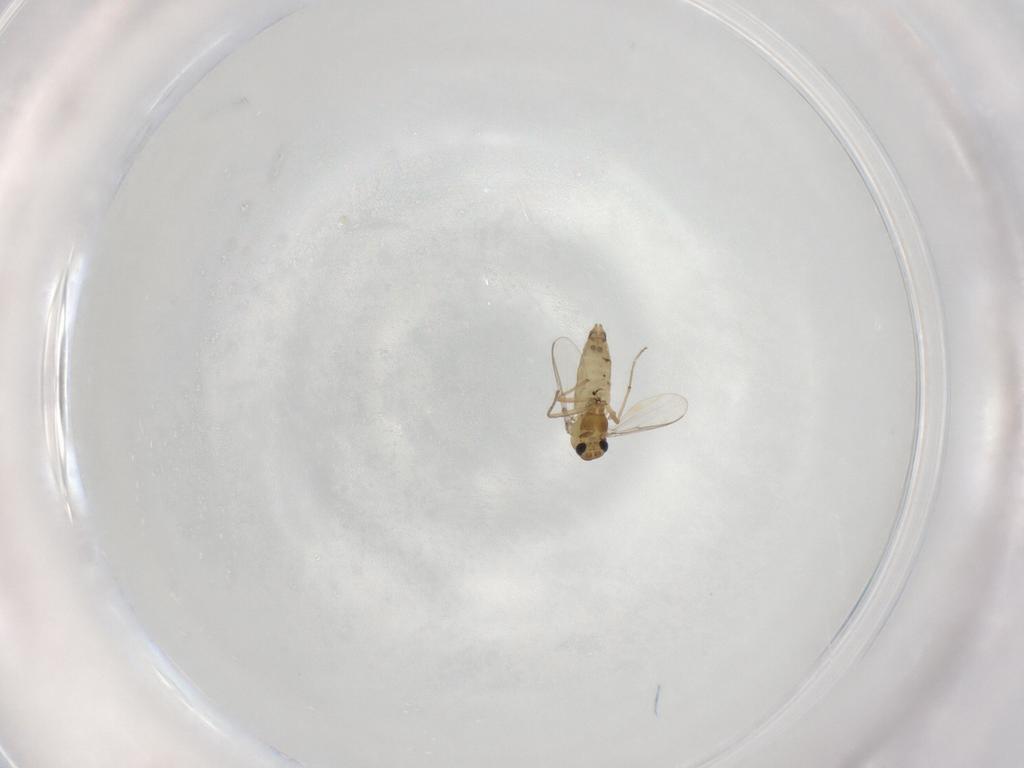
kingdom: Animalia
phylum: Arthropoda
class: Insecta
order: Diptera
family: Chironomidae
